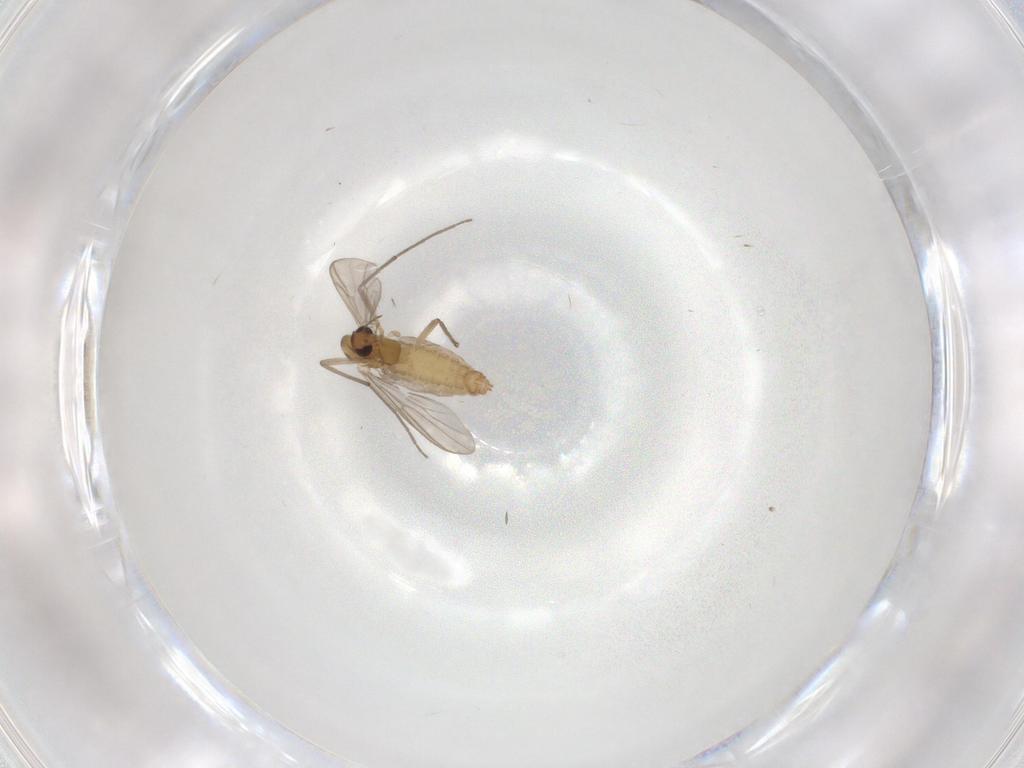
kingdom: Animalia
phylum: Arthropoda
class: Insecta
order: Diptera
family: Chironomidae
